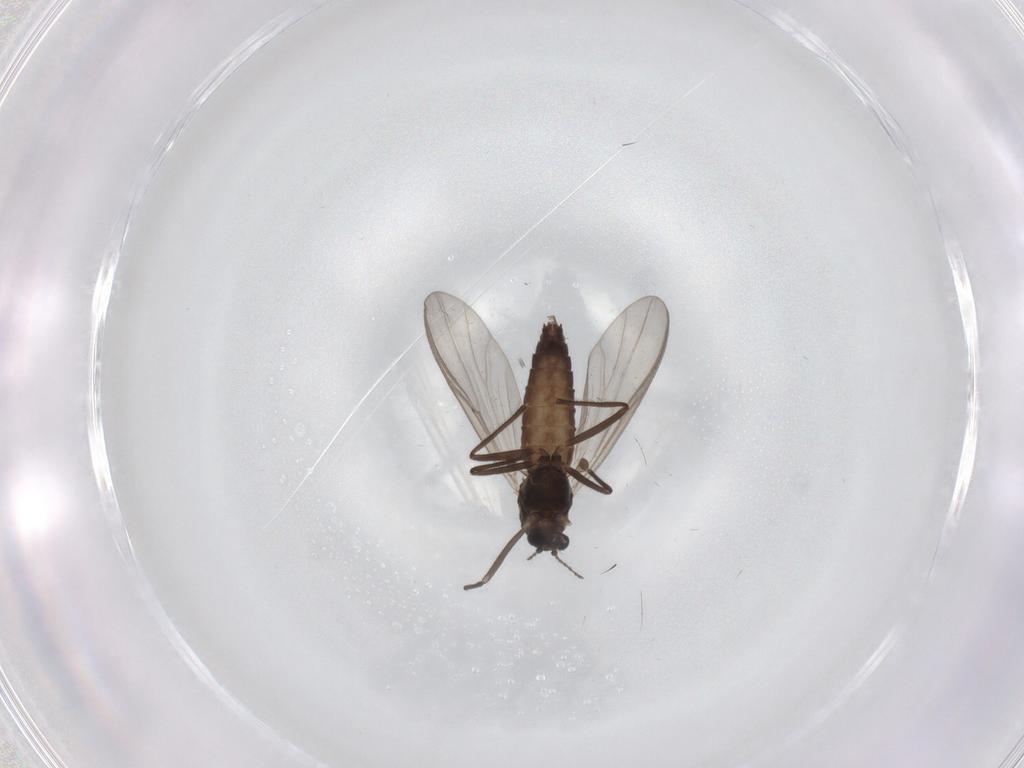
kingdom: Animalia
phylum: Arthropoda
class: Insecta
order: Diptera
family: Chironomidae
